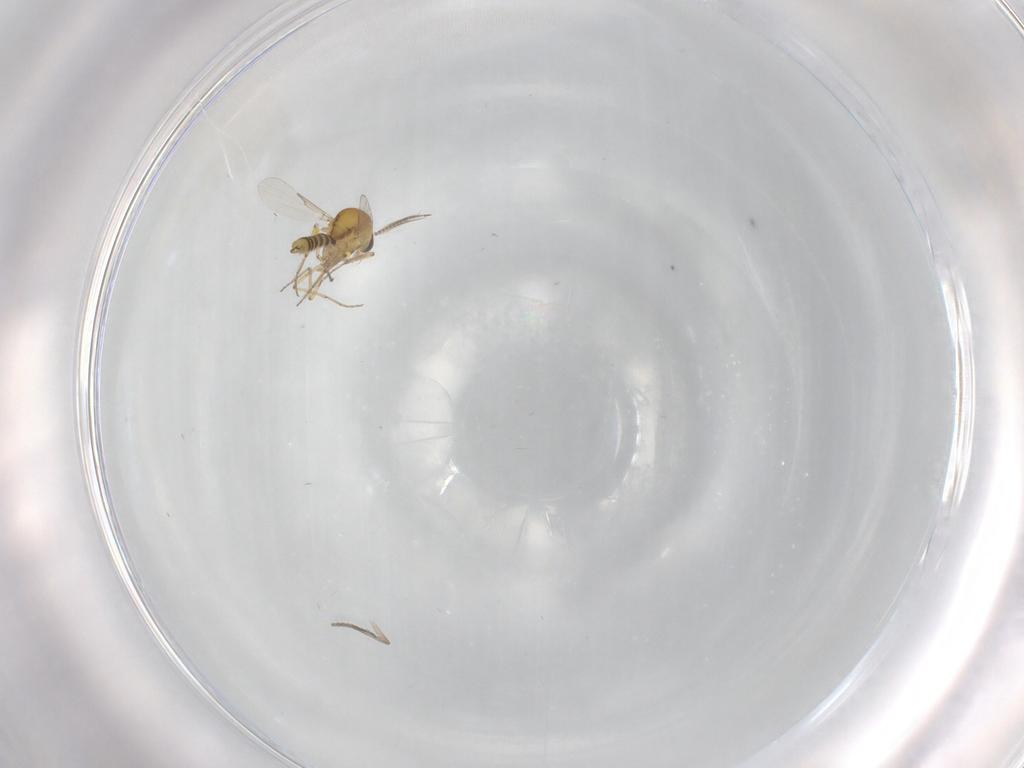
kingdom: Animalia
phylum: Arthropoda
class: Insecta
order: Diptera
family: Ceratopogonidae
